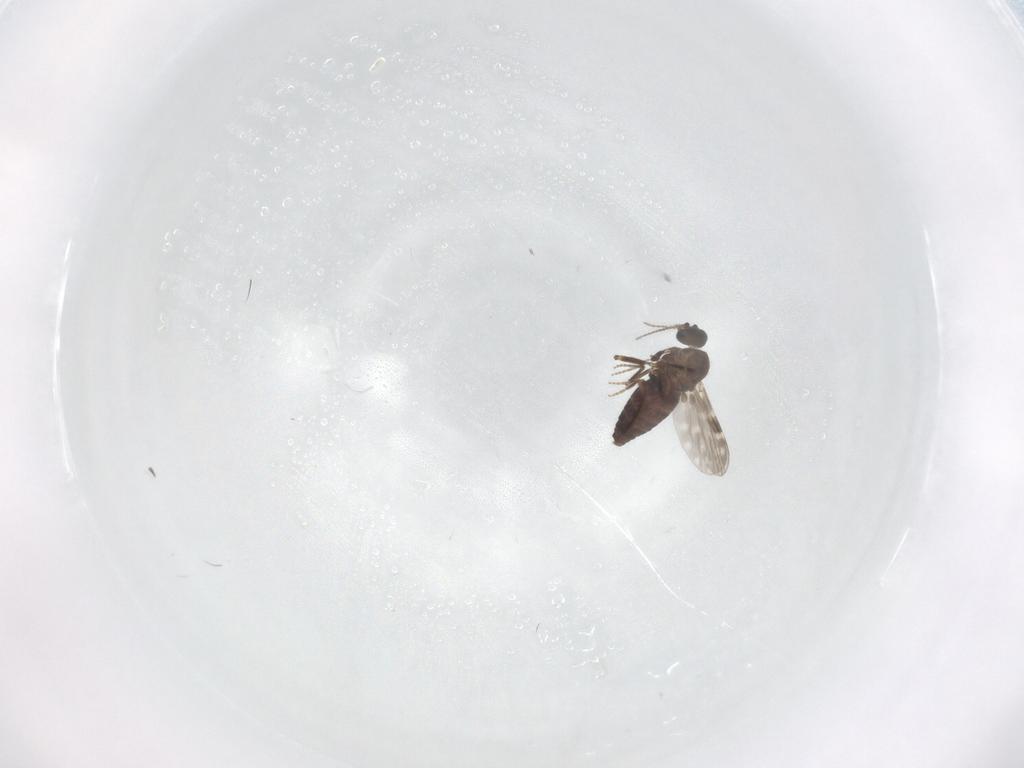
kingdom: Animalia
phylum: Arthropoda
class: Insecta
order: Diptera
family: Ceratopogonidae
